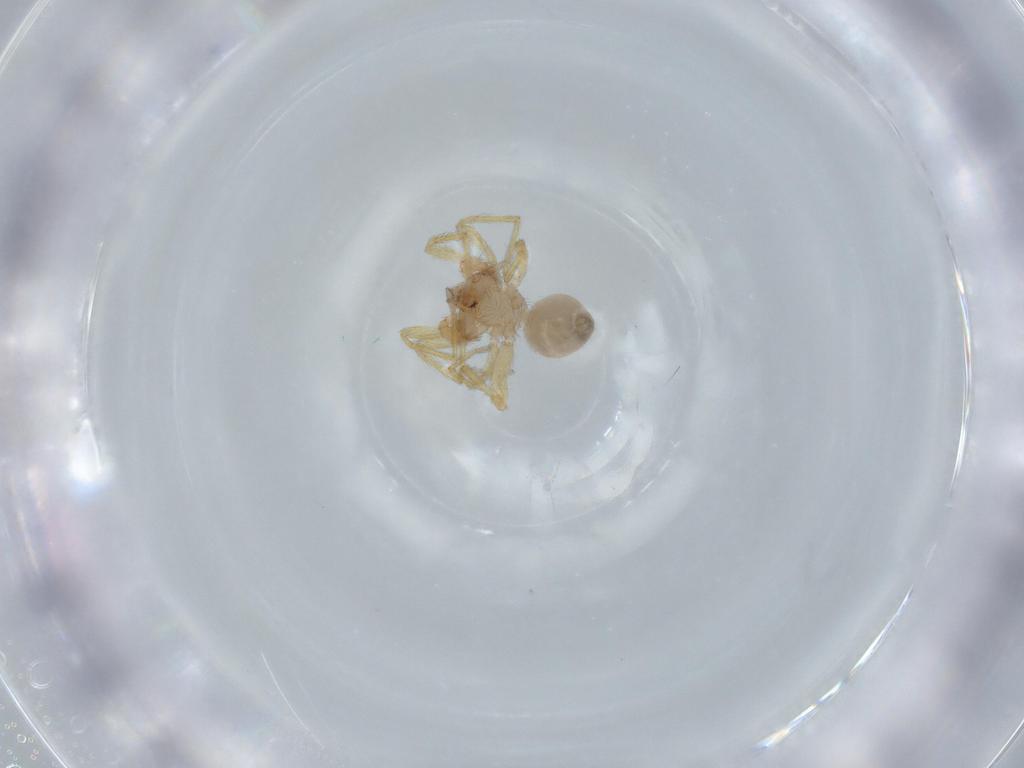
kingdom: Animalia
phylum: Arthropoda
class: Arachnida
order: Araneae
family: Oonopidae
